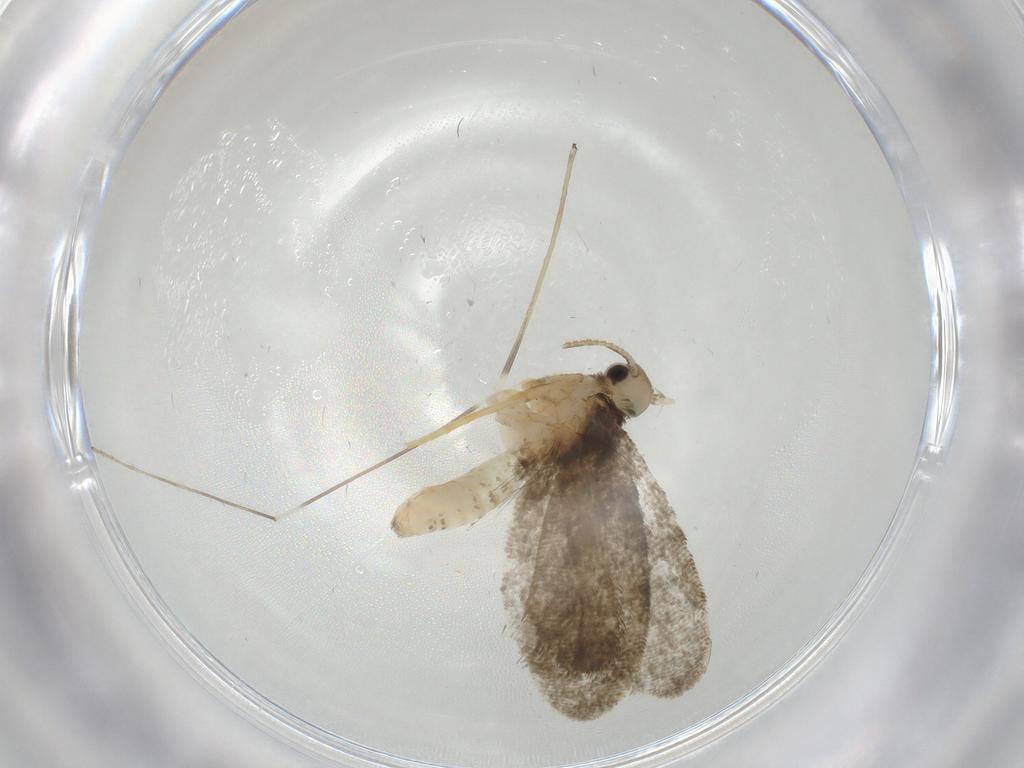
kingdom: Animalia
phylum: Arthropoda
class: Insecta
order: Lepidoptera
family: Psychidae
